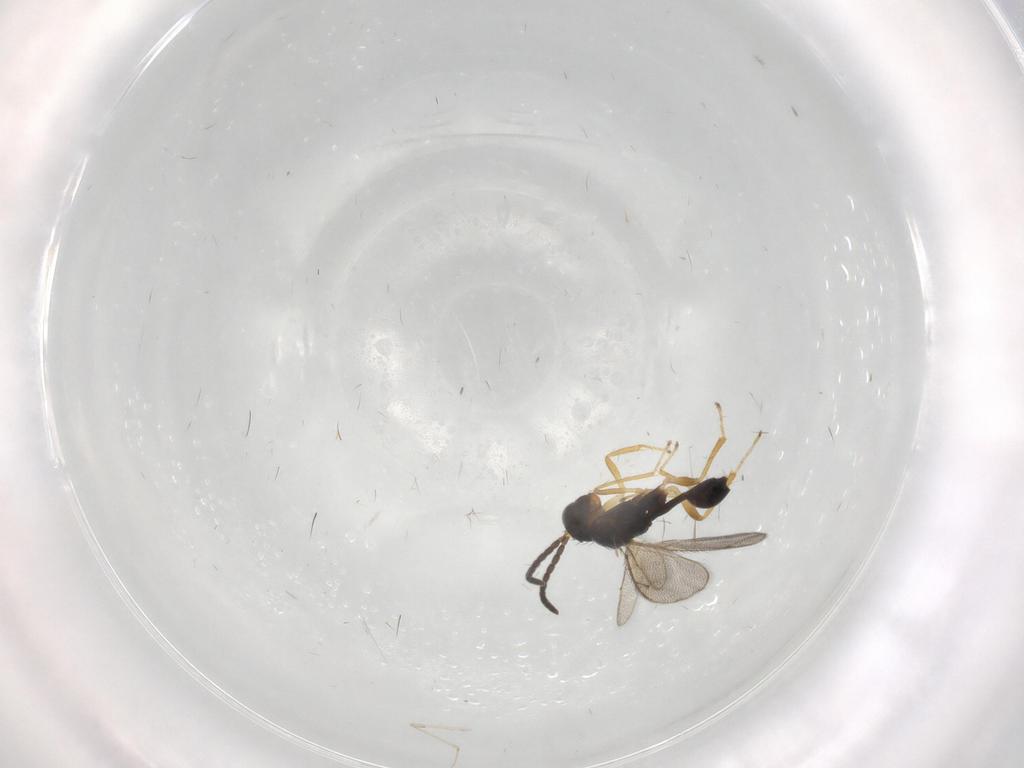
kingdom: Animalia
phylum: Arthropoda
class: Insecta
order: Hymenoptera
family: Diparidae
